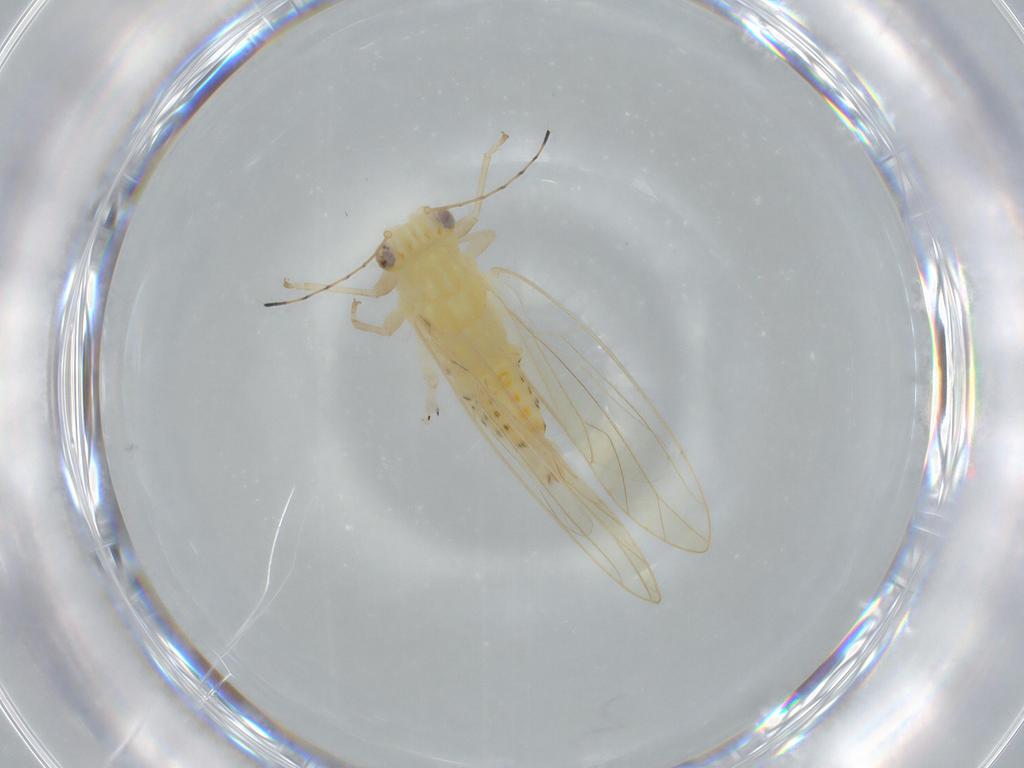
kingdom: Animalia
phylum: Arthropoda
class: Insecta
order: Hemiptera
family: Triozidae
